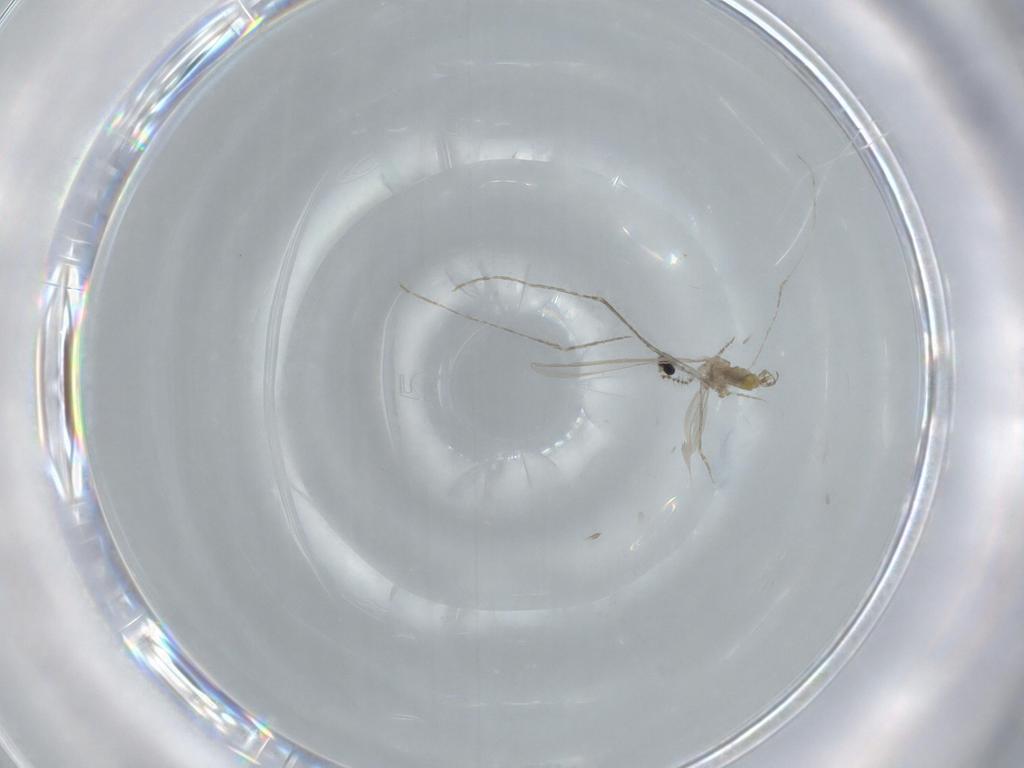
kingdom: Animalia
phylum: Arthropoda
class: Insecta
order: Diptera
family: Cecidomyiidae
